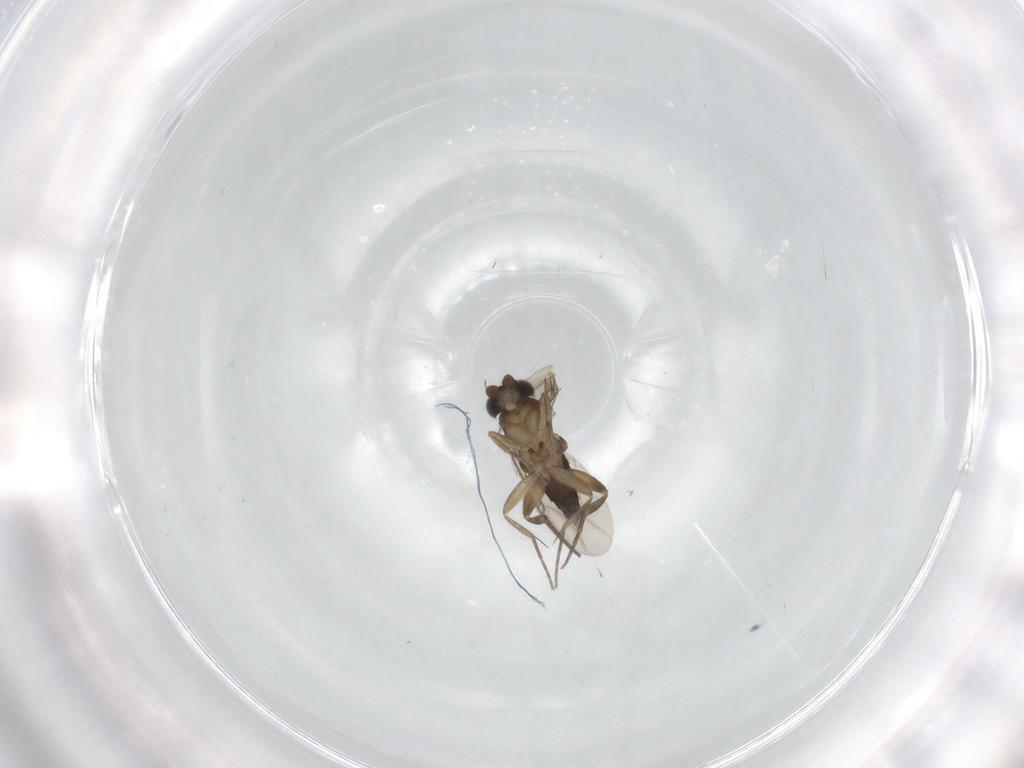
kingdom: Animalia
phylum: Arthropoda
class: Insecta
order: Diptera
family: Phoridae
